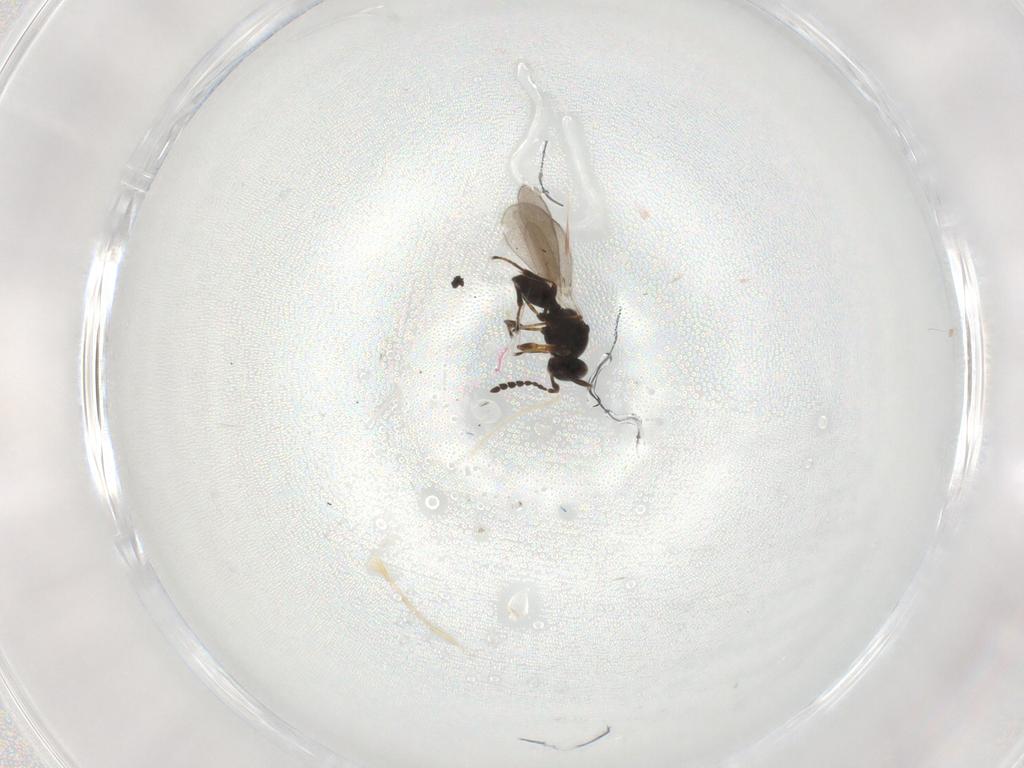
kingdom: Animalia
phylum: Arthropoda
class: Insecta
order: Hymenoptera
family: Platygastridae
